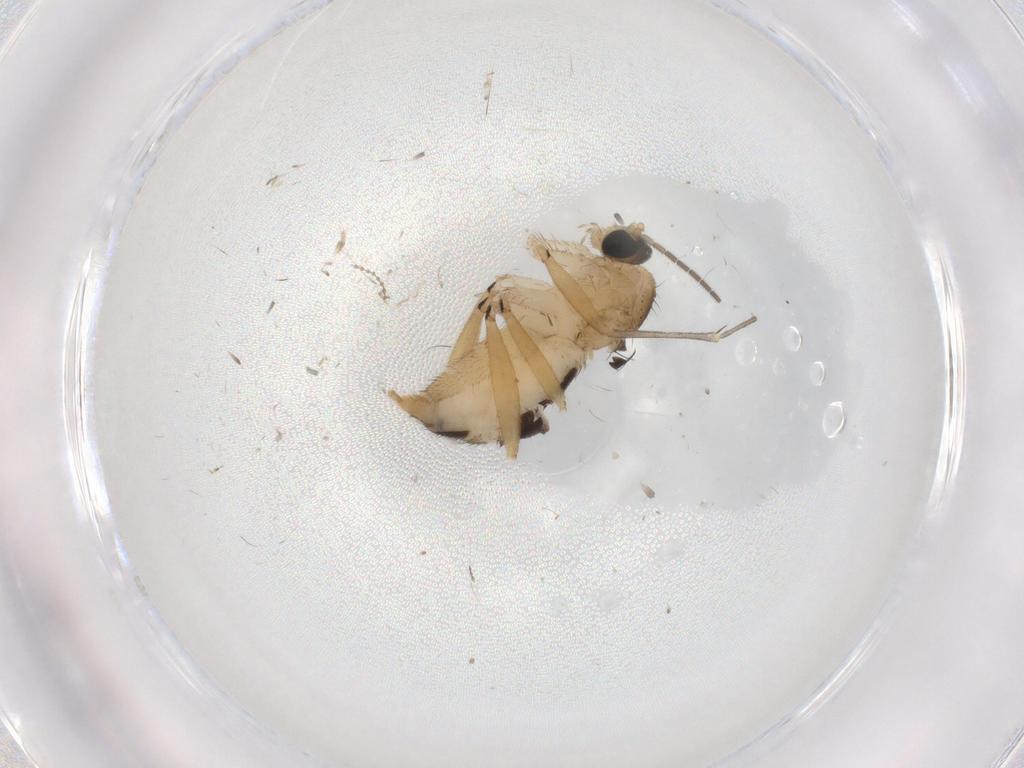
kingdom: Animalia
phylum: Arthropoda
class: Insecta
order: Diptera
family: Sciaridae
